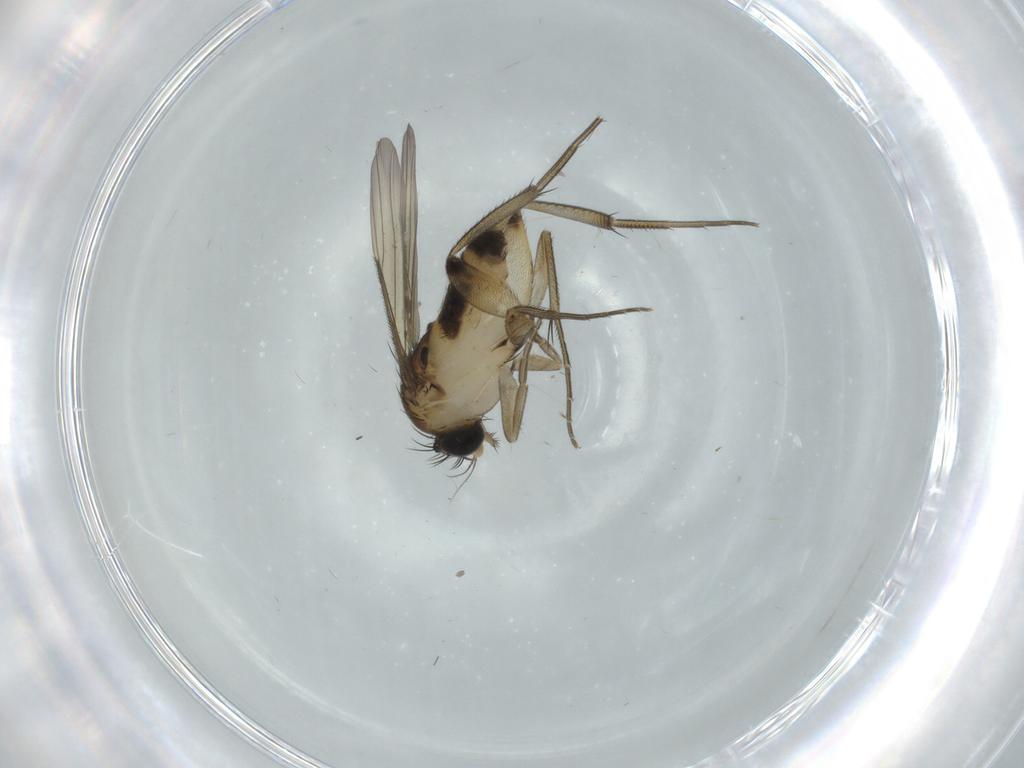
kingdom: Animalia
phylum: Arthropoda
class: Insecta
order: Diptera
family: Phoridae
